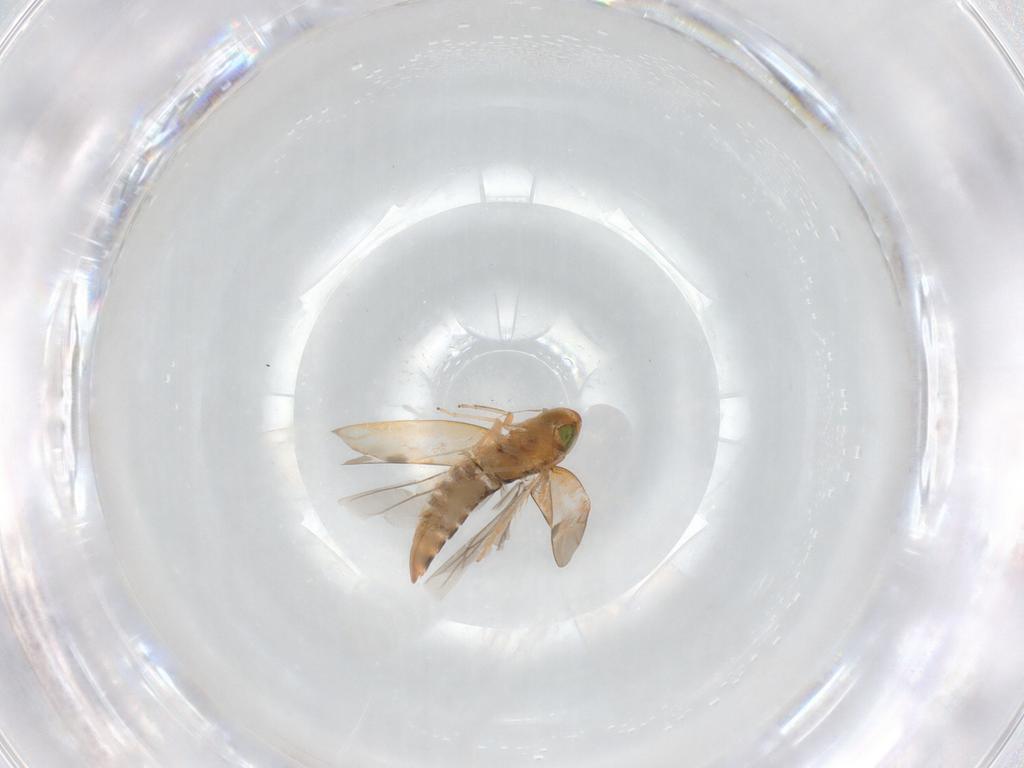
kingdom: Animalia
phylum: Arthropoda
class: Insecta
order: Hemiptera
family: Cicadellidae
